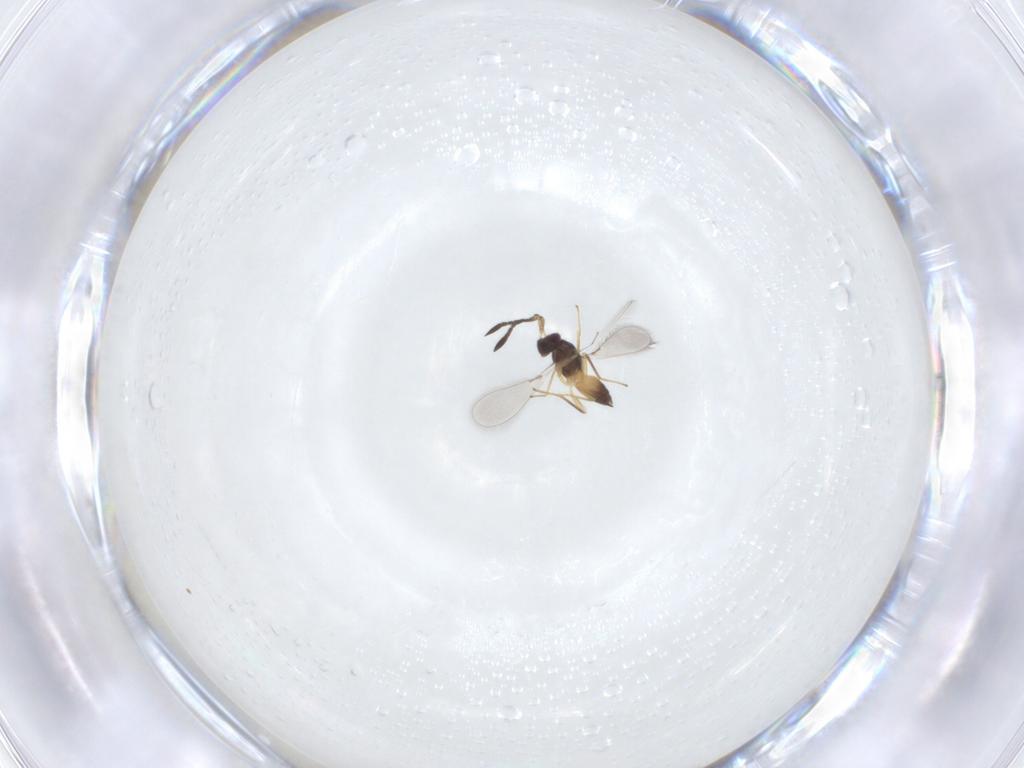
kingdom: Animalia
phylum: Arthropoda
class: Insecta
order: Hymenoptera
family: Mymaridae
